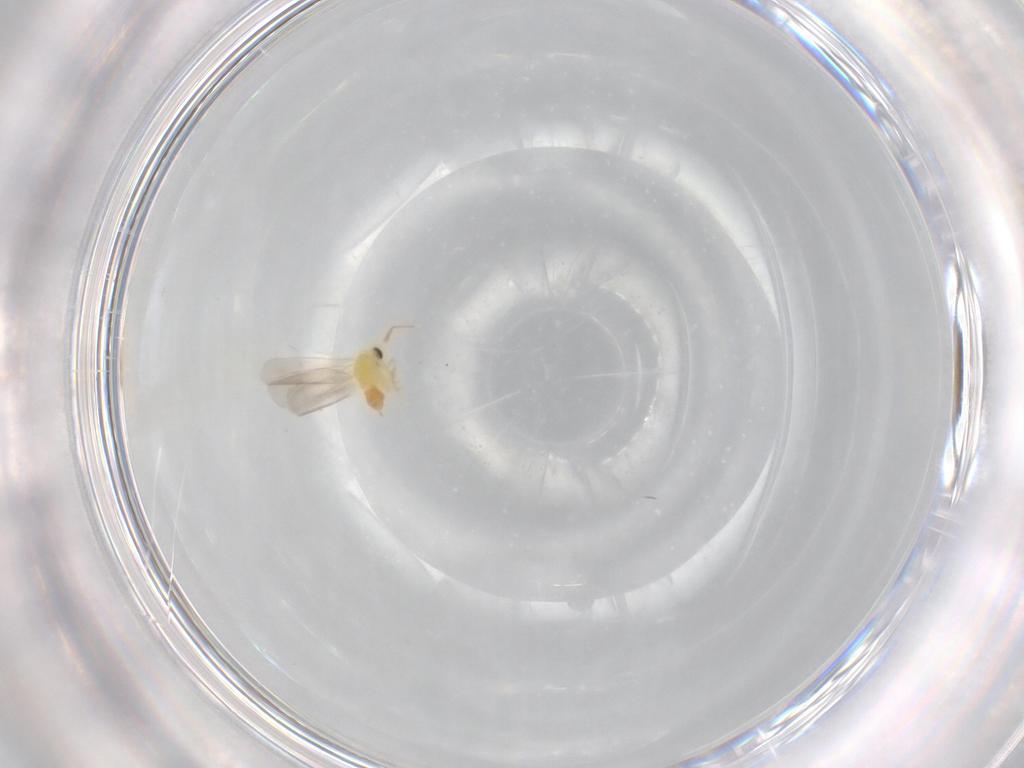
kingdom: Animalia
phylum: Arthropoda
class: Insecta
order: Hemiptera
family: Aleyrodidae
